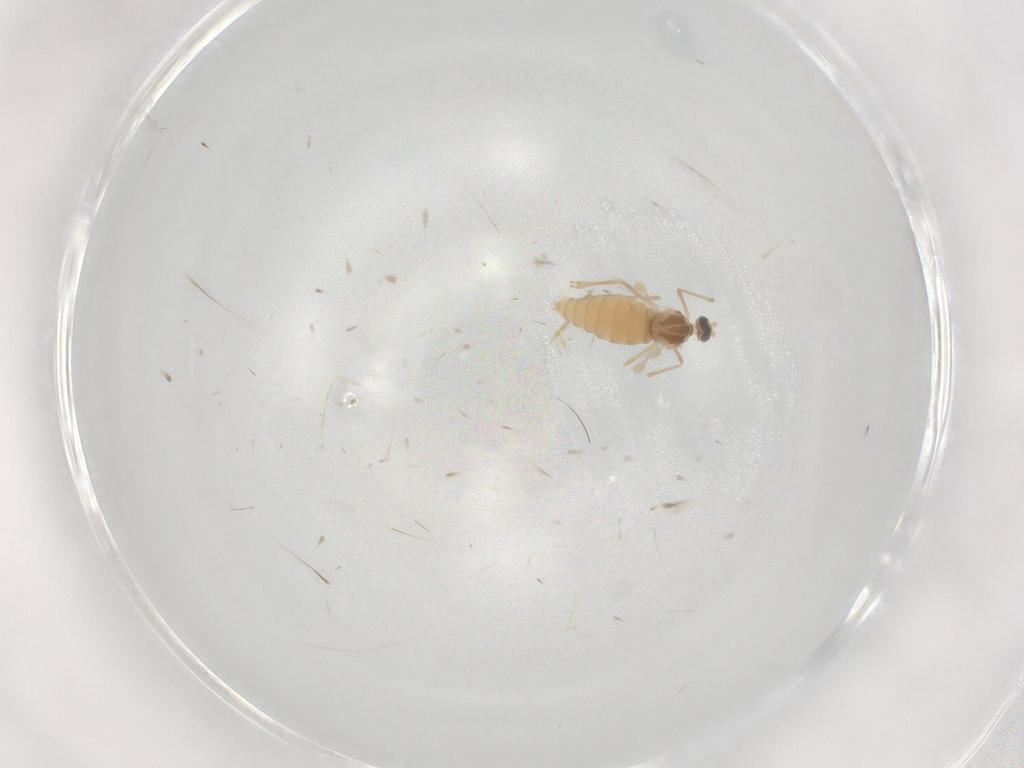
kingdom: Animalia
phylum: Arthropoda
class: Insecta
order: Diptera
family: Cecidomyiidae
